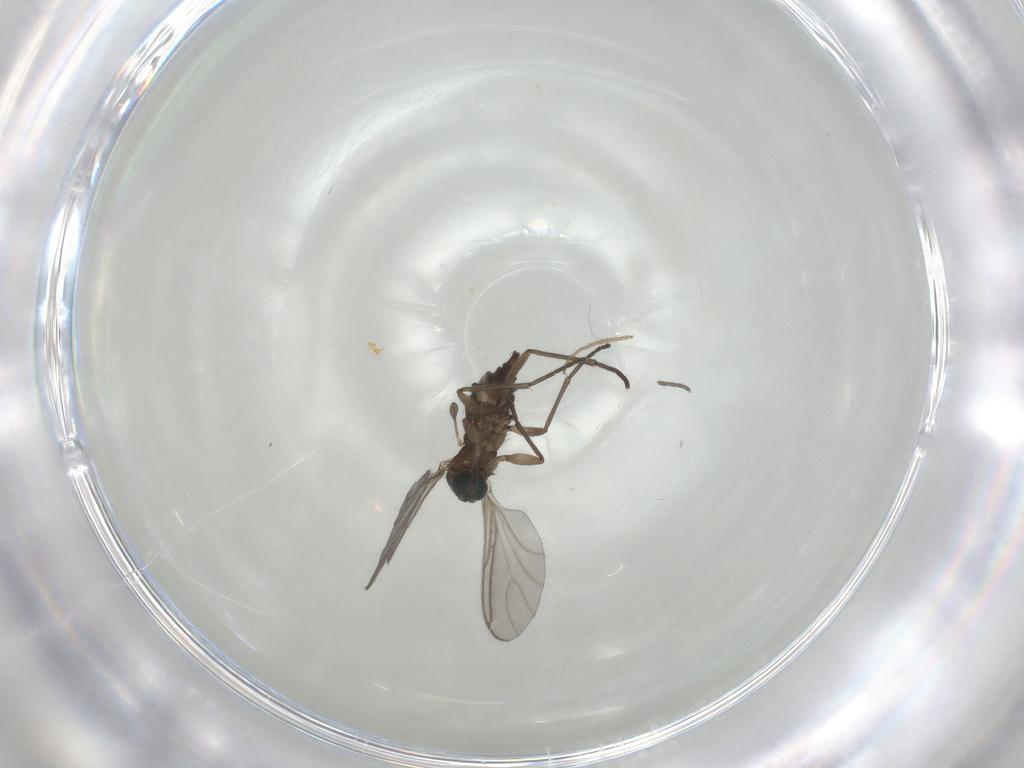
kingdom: Animalia
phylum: Arthropoda
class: Insecta
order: Diptera
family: Chironomidae
